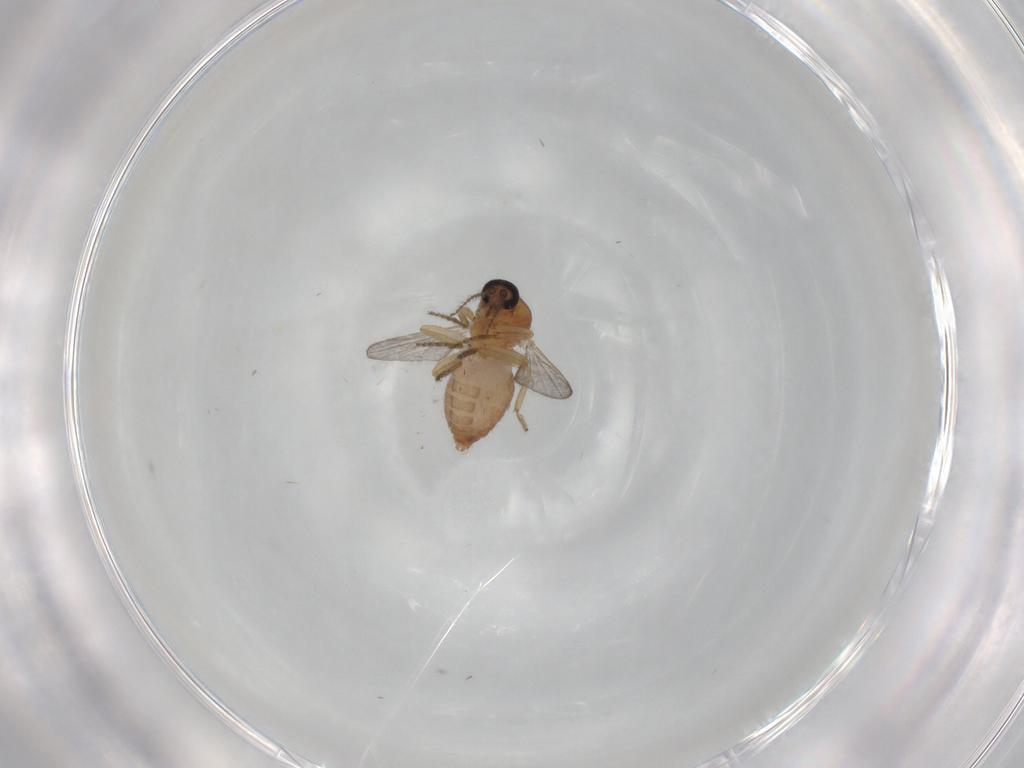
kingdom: Animalia
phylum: Arthropoda
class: Insecta
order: Diptera
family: Ceratopogonidae
